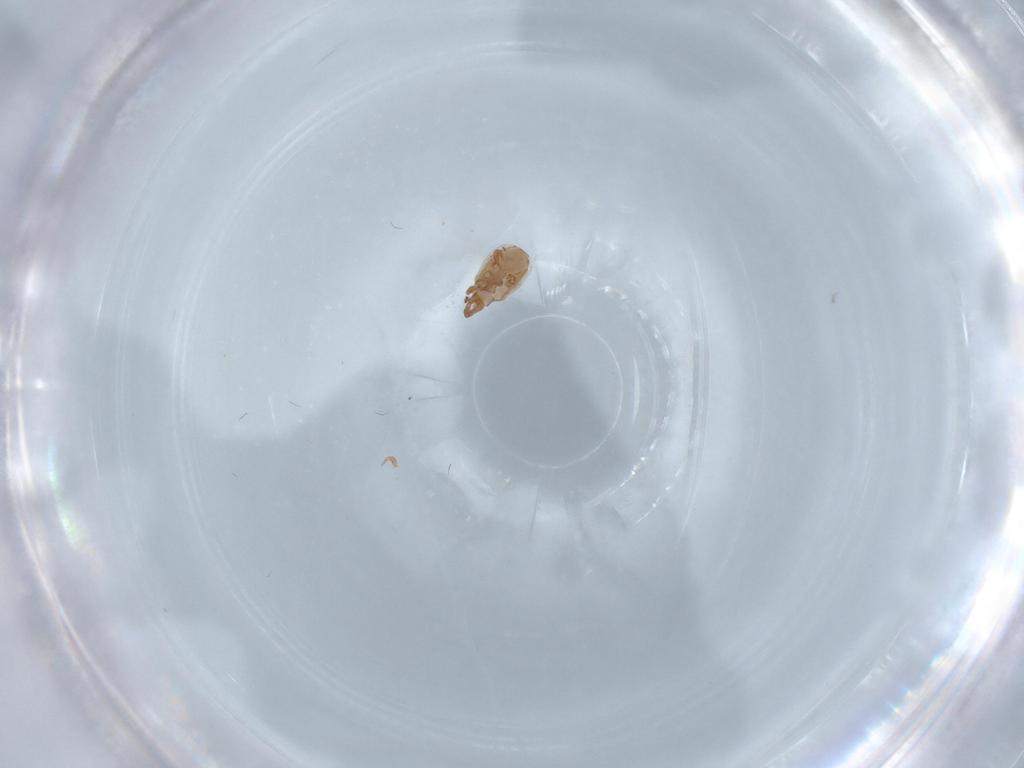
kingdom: Animalia
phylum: Arthropoda
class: Arachnida
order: Mesostigmata
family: Dinychidae
